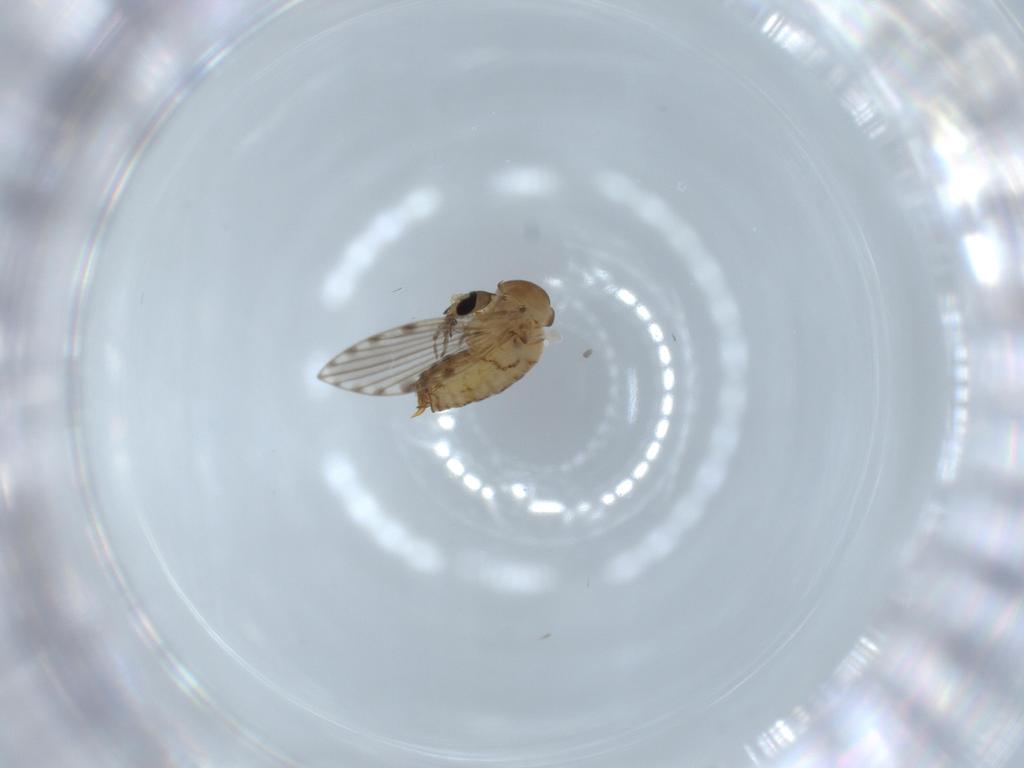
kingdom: Animalia
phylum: Arthropoda
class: Insecta
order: Diptera
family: Psychodidae
